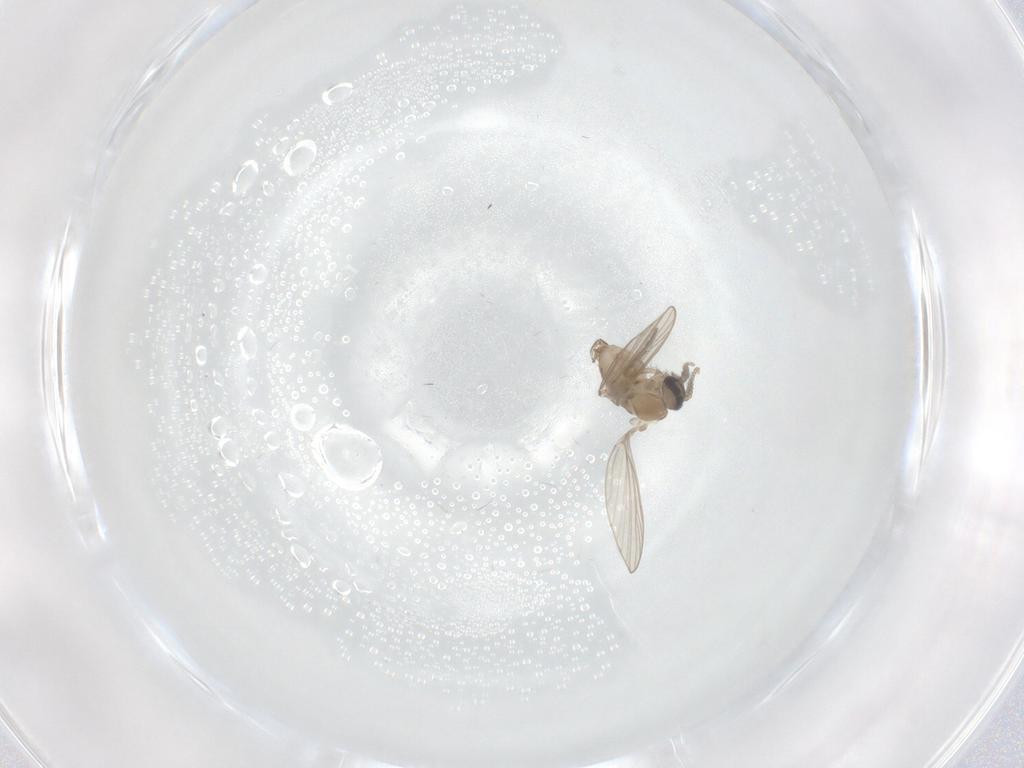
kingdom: Animalia
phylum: Arthropoda
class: Insecta
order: Diptera
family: Psychodidae
